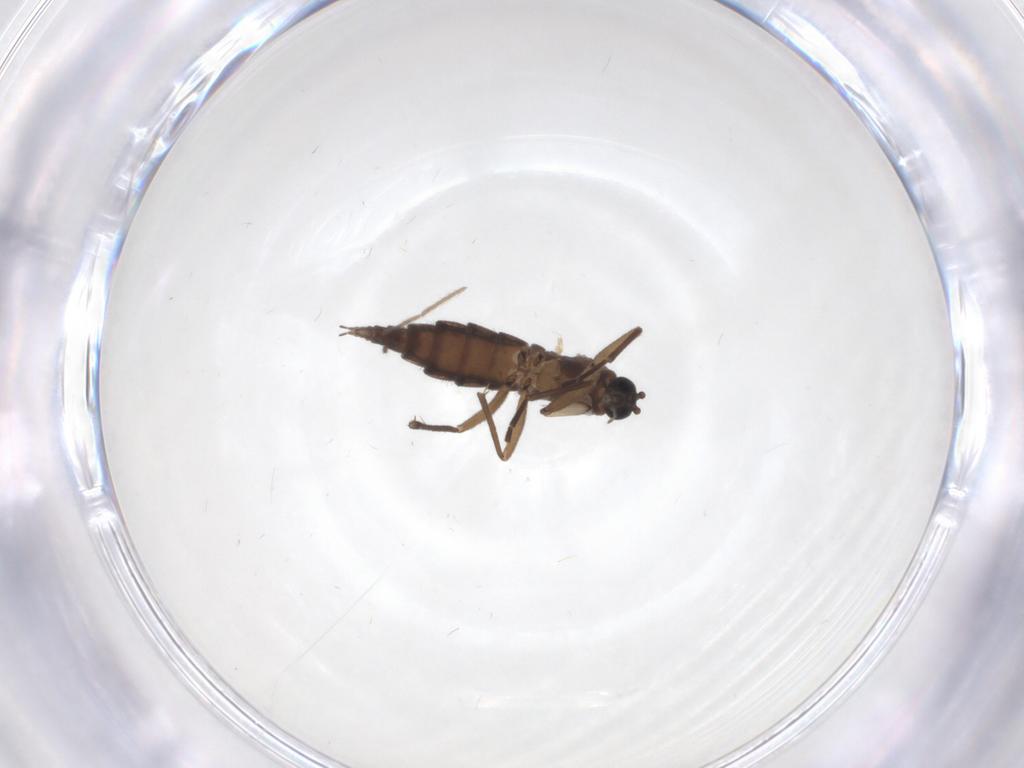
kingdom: Animalia
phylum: Arthropoda
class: Insecta
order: Diptera
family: Sciaridae
